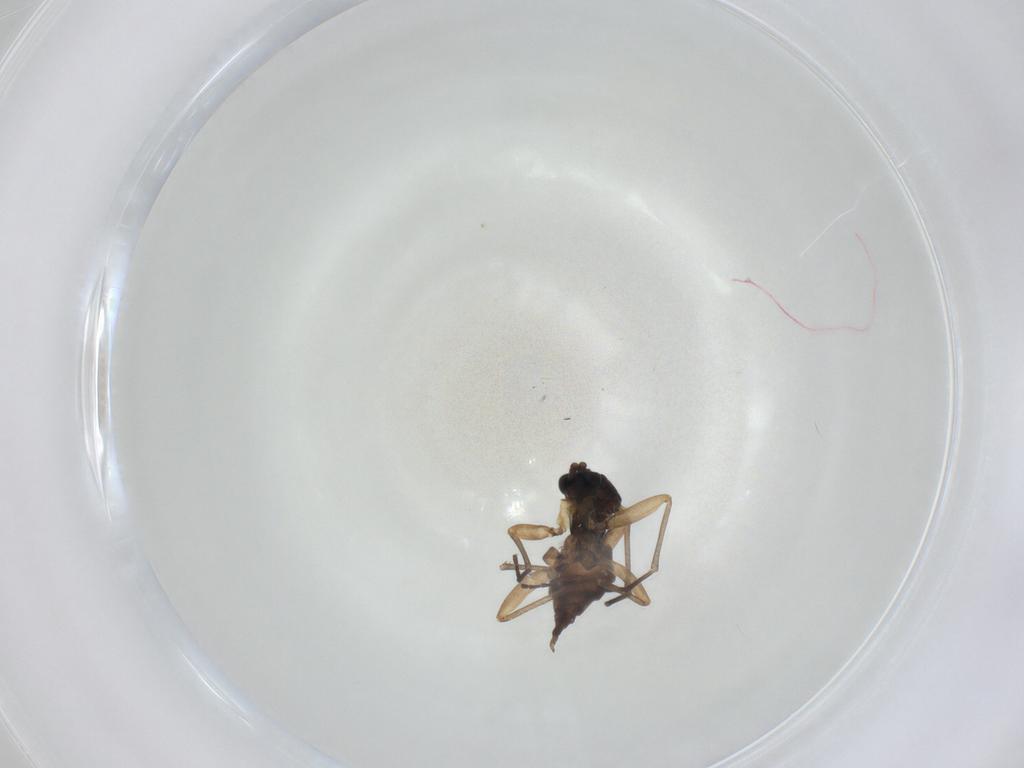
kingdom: Animalia
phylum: Arthropoda
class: Insecta
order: Diptera
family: Sciaridae
